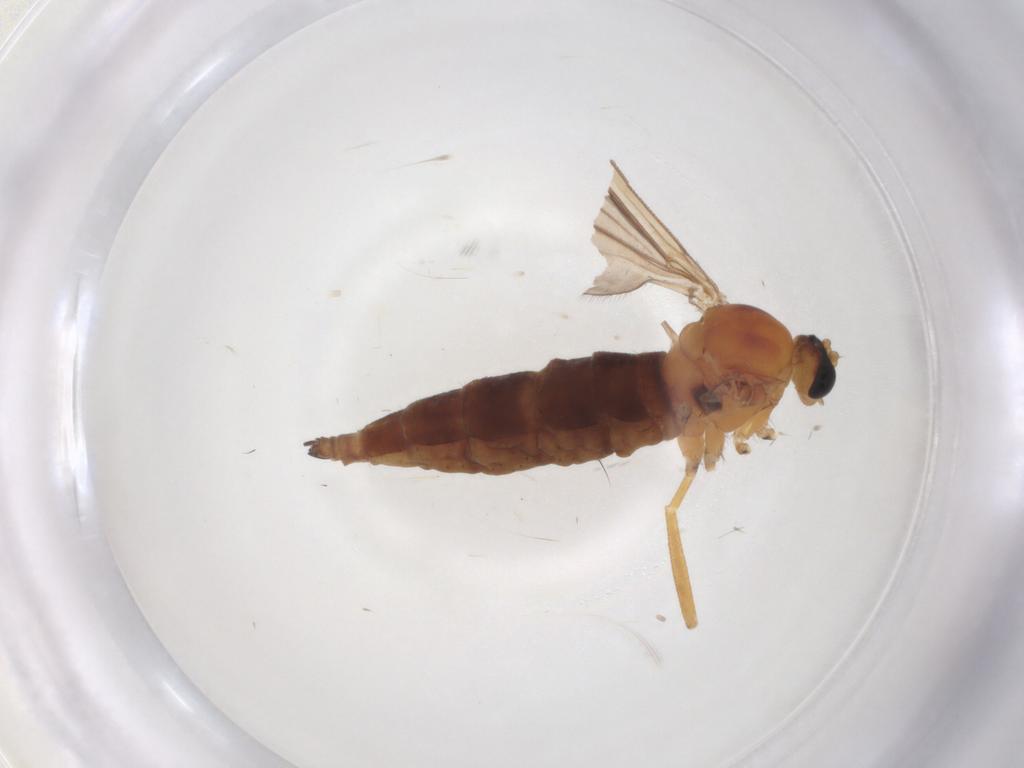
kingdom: Animalia
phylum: Arthropoda
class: Insecta
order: Diptera
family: Sciaridae
